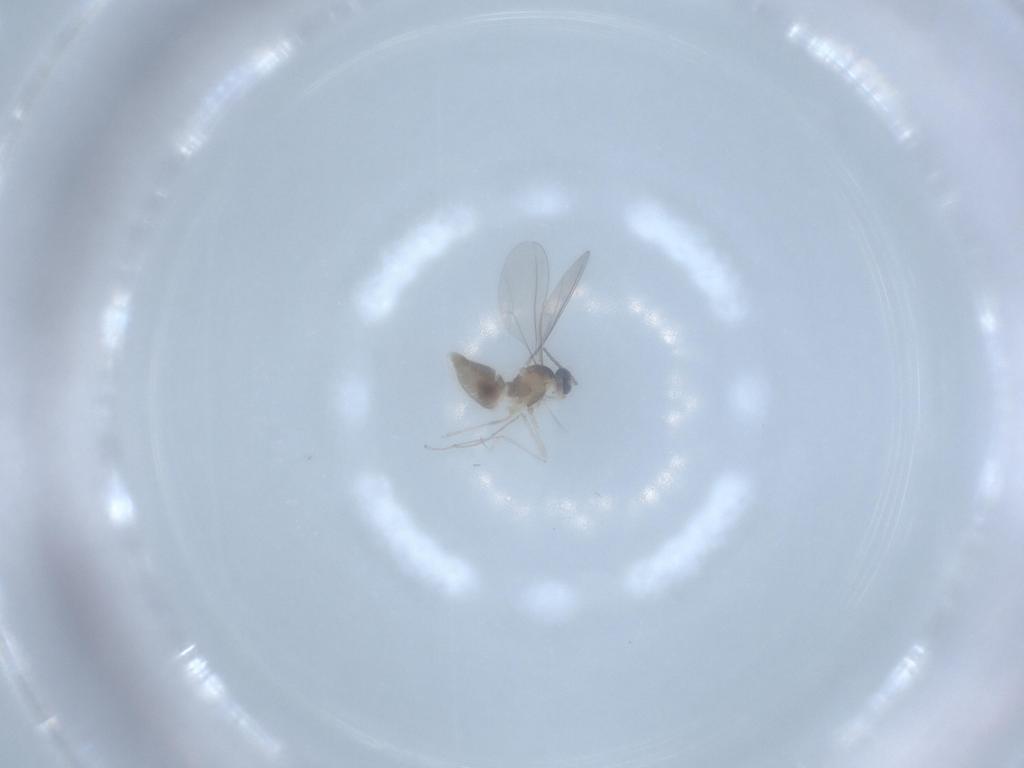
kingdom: Animalia
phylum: Arthropoda
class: Insecta
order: Diptera
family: Cecidomyiidae
